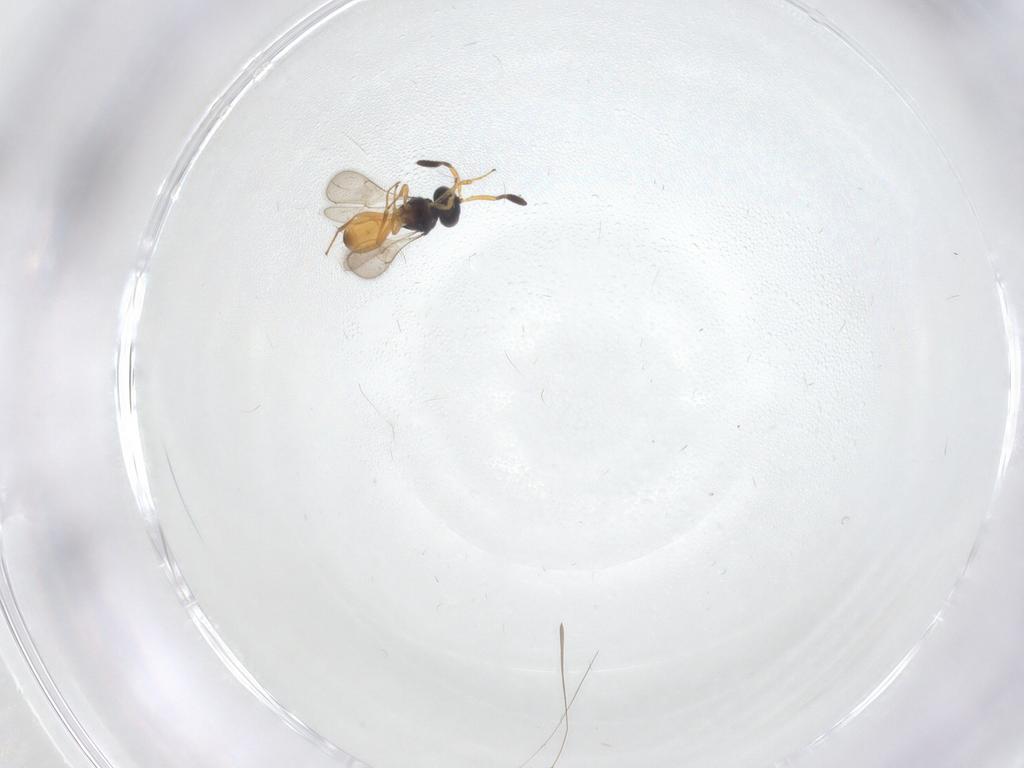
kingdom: Animalia
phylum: Arthropoda
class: Insecta
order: Hymenoptera
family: Scelionidae
